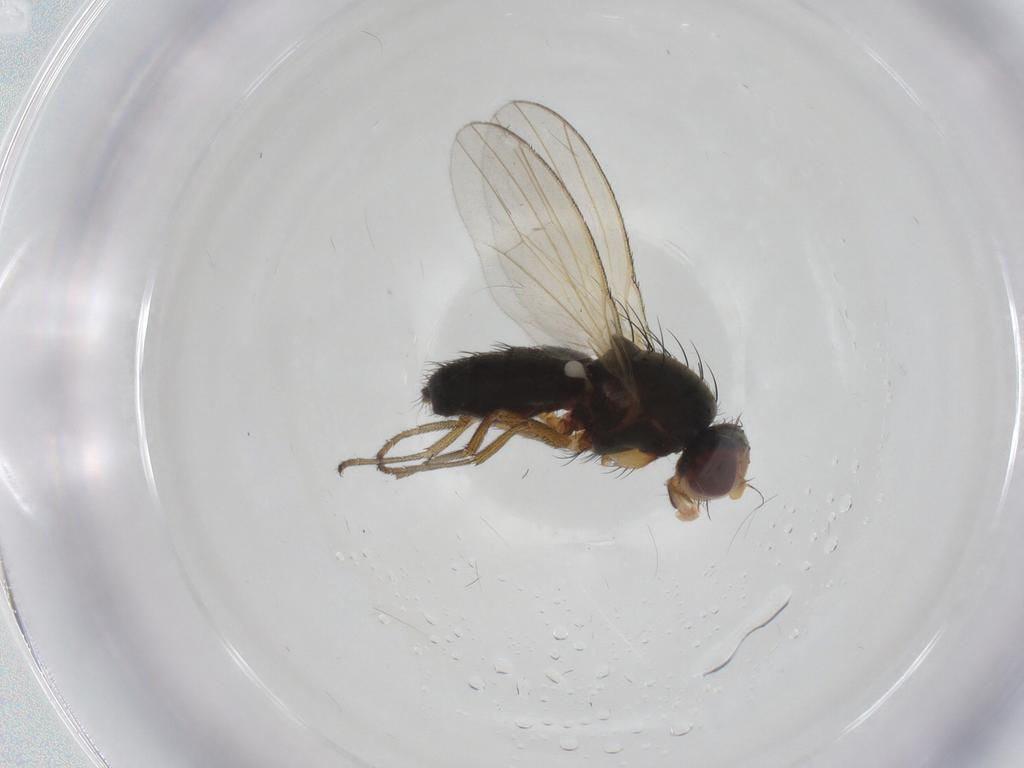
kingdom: Animalia
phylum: Arthropoda
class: Insecta
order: Diptera
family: Heleomyzidae
